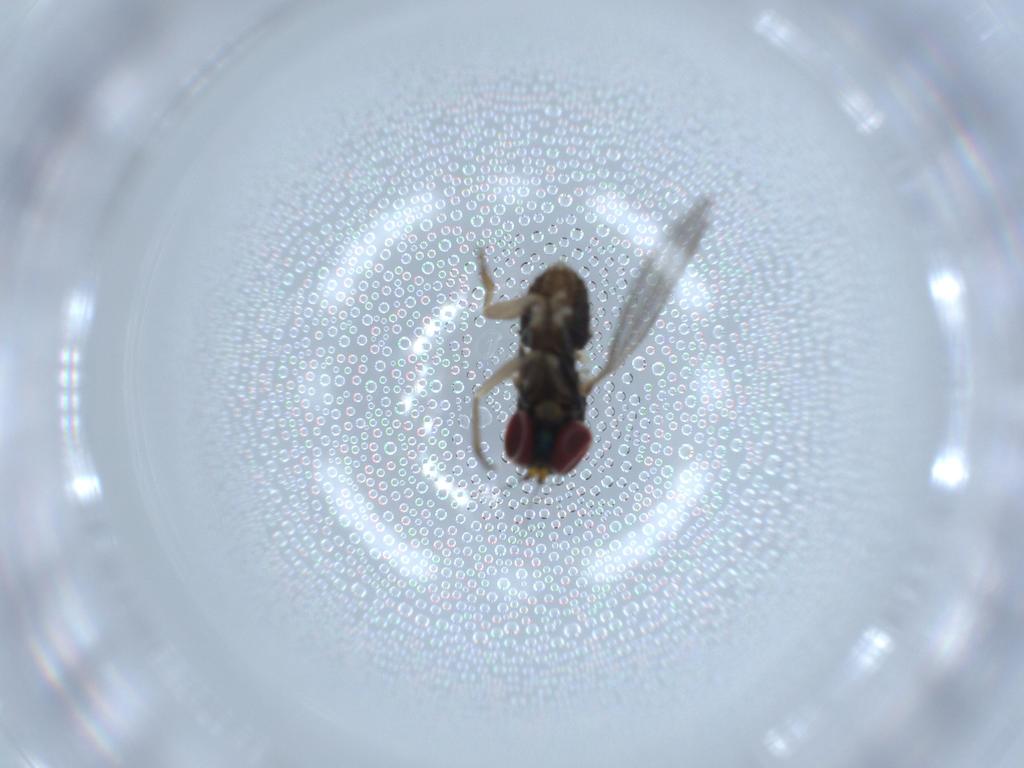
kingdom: Animalia
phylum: Arthropoda
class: Insecta
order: Diptera
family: Dolichopodidae
